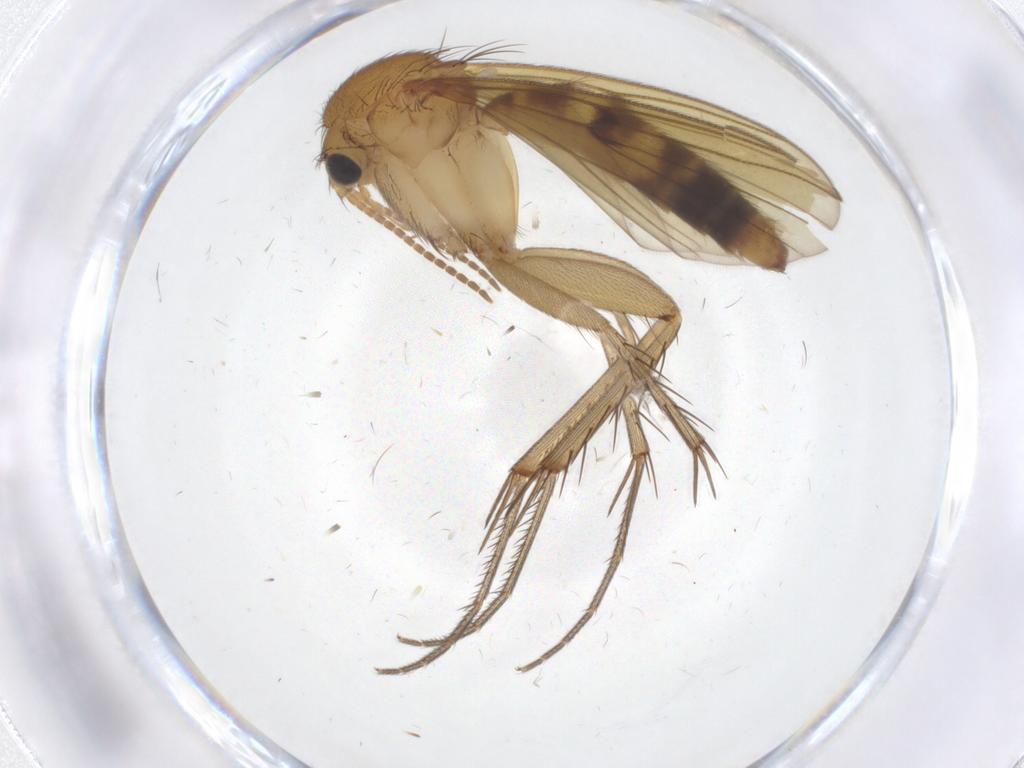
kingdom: Animalia
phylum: Arthropoda
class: Insecta
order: Diptera
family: Mycetophilidae
